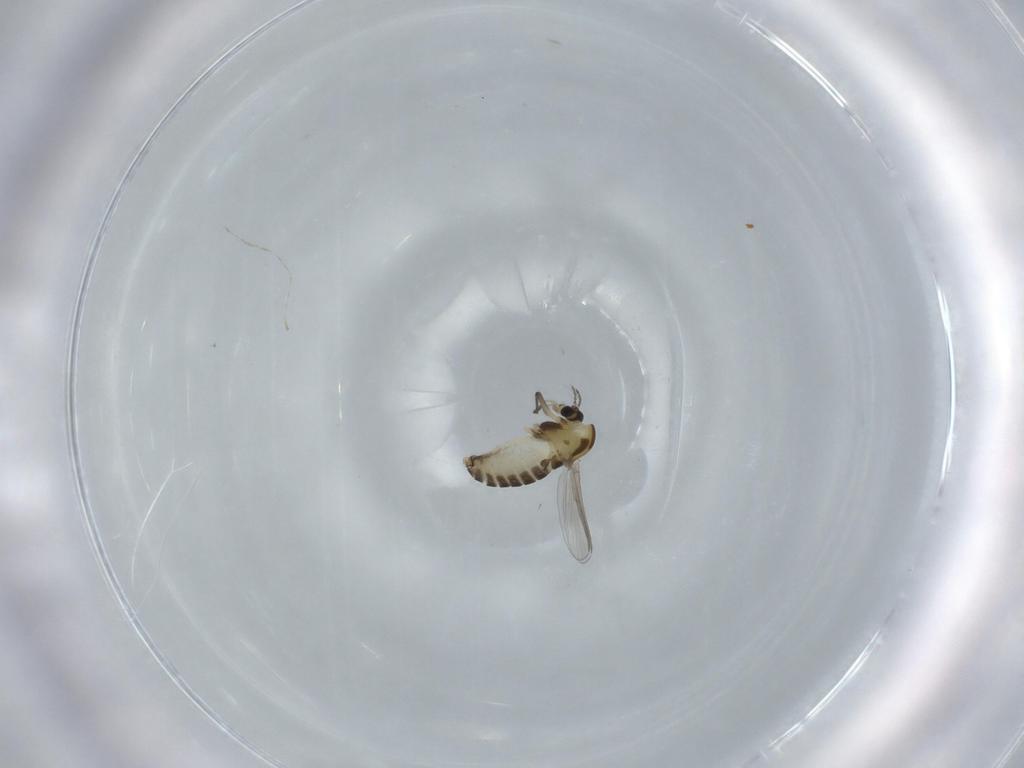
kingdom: Animalia
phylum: Arthropoda
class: Insecta
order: Diptera
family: Chironomidae
